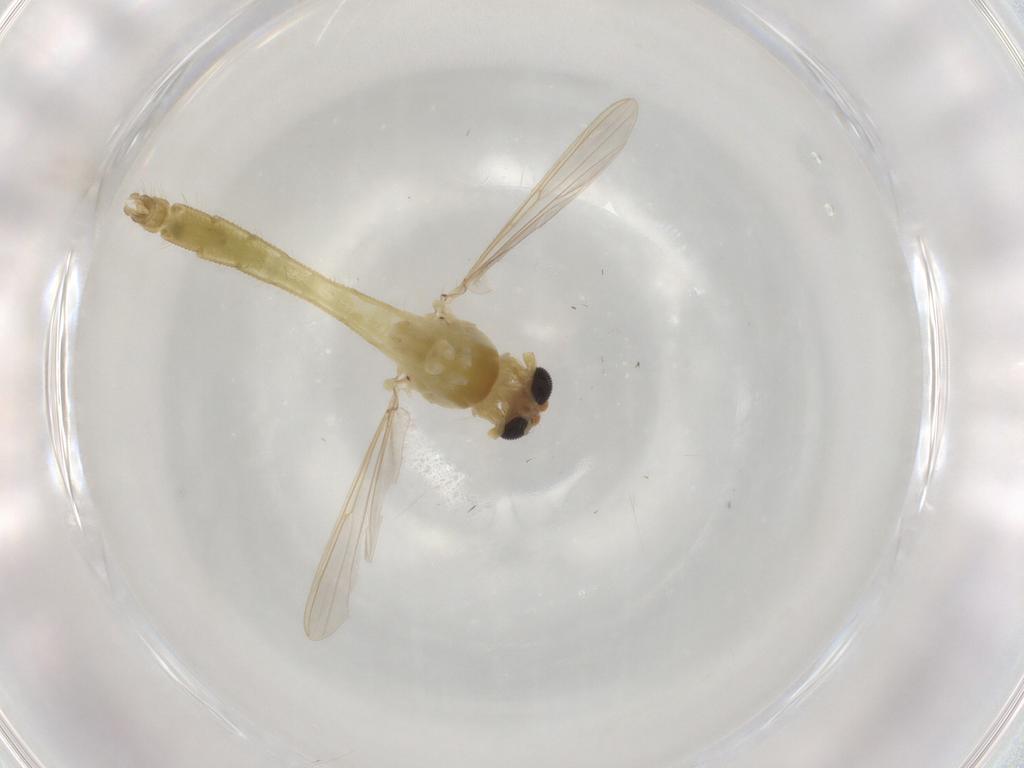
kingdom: Animalia
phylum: Arthropoda
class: Insecta
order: Diptera
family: Chironomidae
